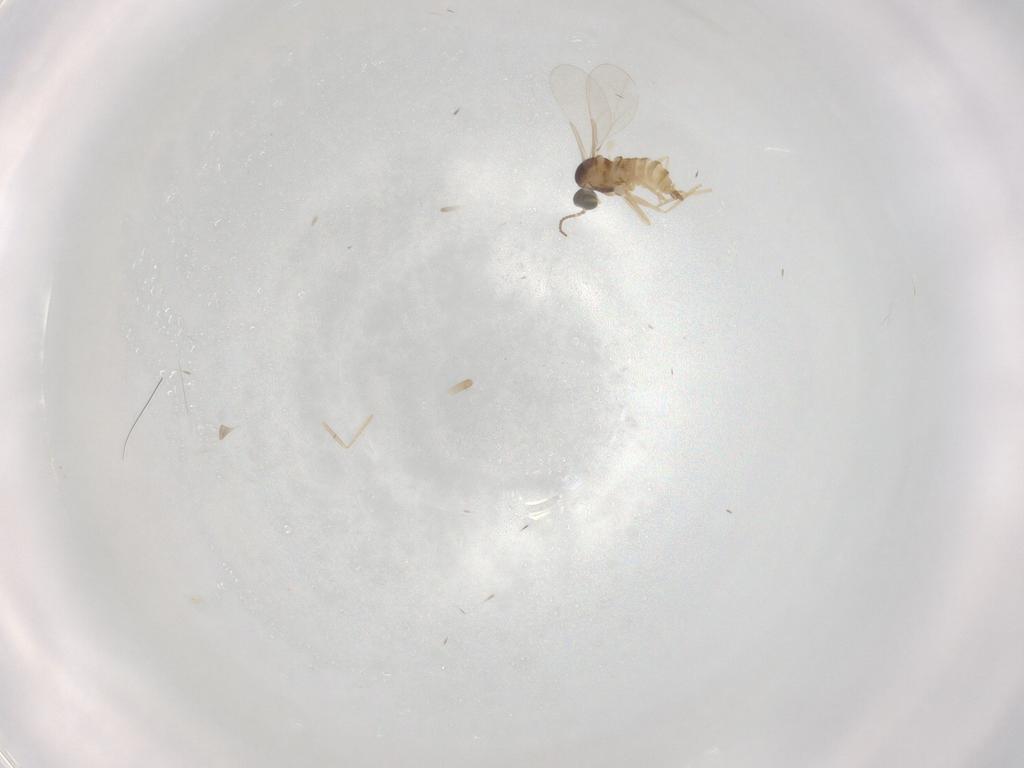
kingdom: Animalia
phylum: Arthropoda
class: Insecta
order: Diptera
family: Cecidomyiidae
